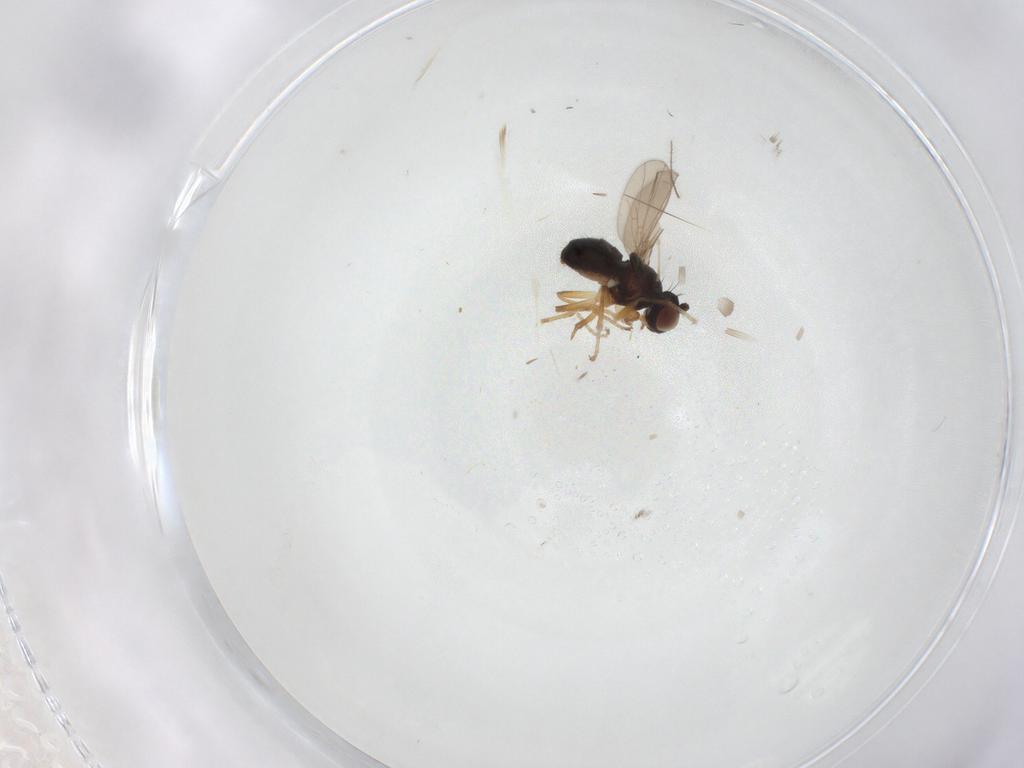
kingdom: Animalia
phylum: Arthropoda
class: Insecta
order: Diptera
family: Ephydridae
